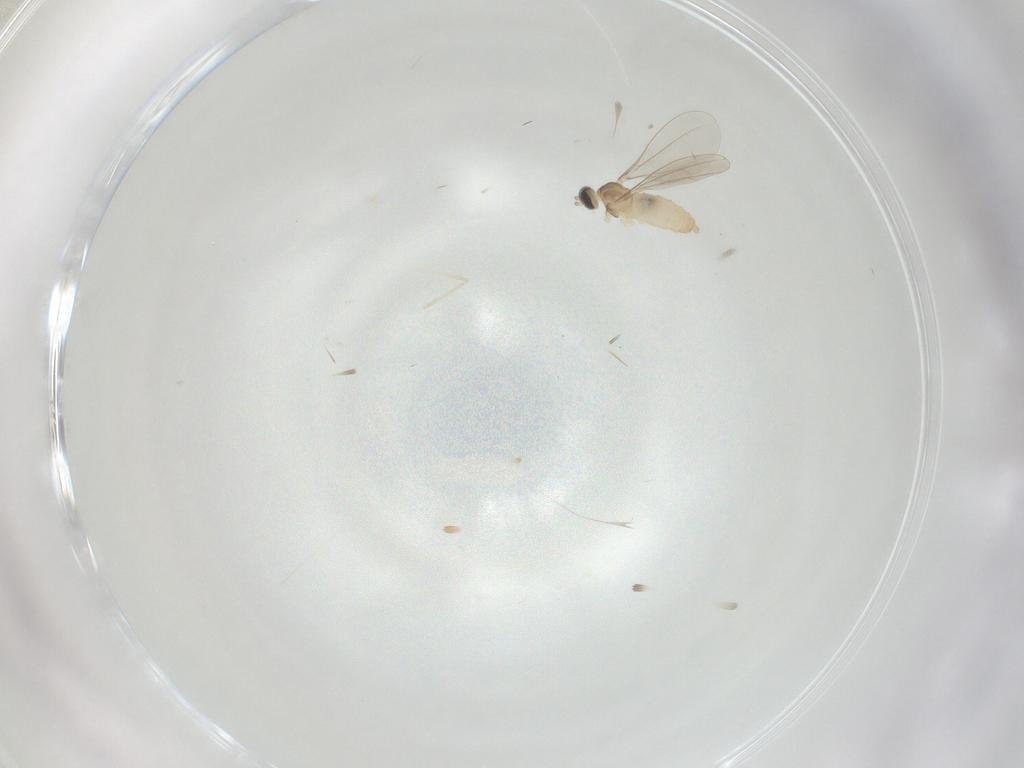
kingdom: Animalia
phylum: Arthropoda
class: Insecta
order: Diptera
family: Cecidomyiidae
